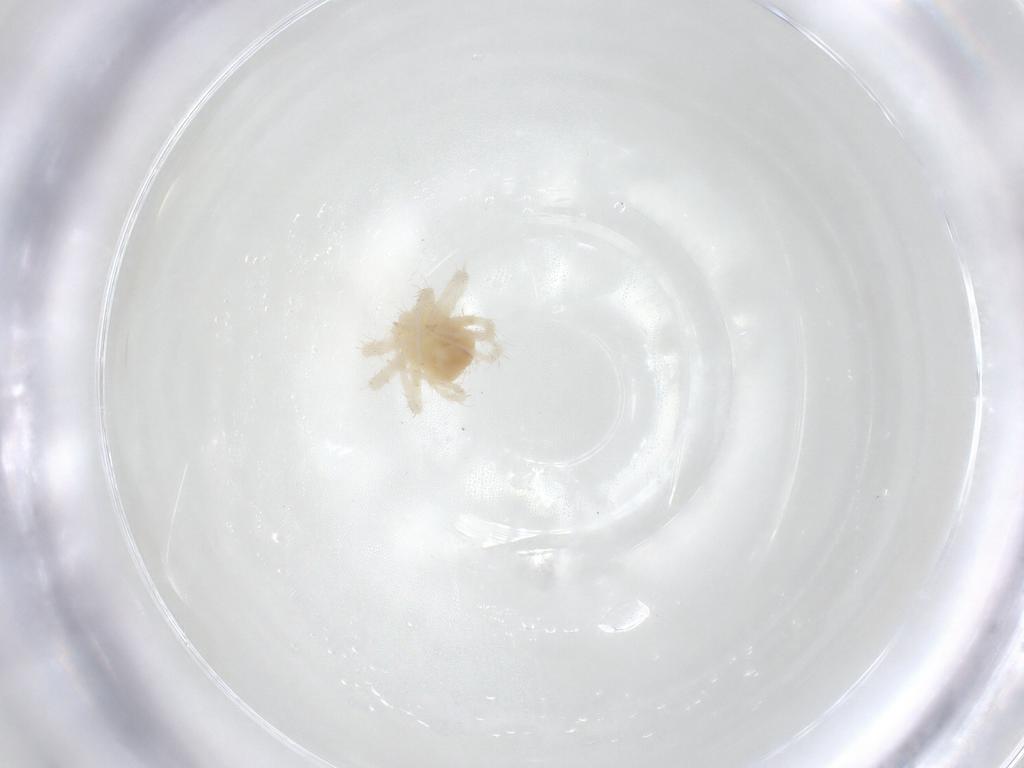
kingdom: Animalia
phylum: Arthropoda
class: Arachnida
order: Trombidiformes
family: Anystidae
